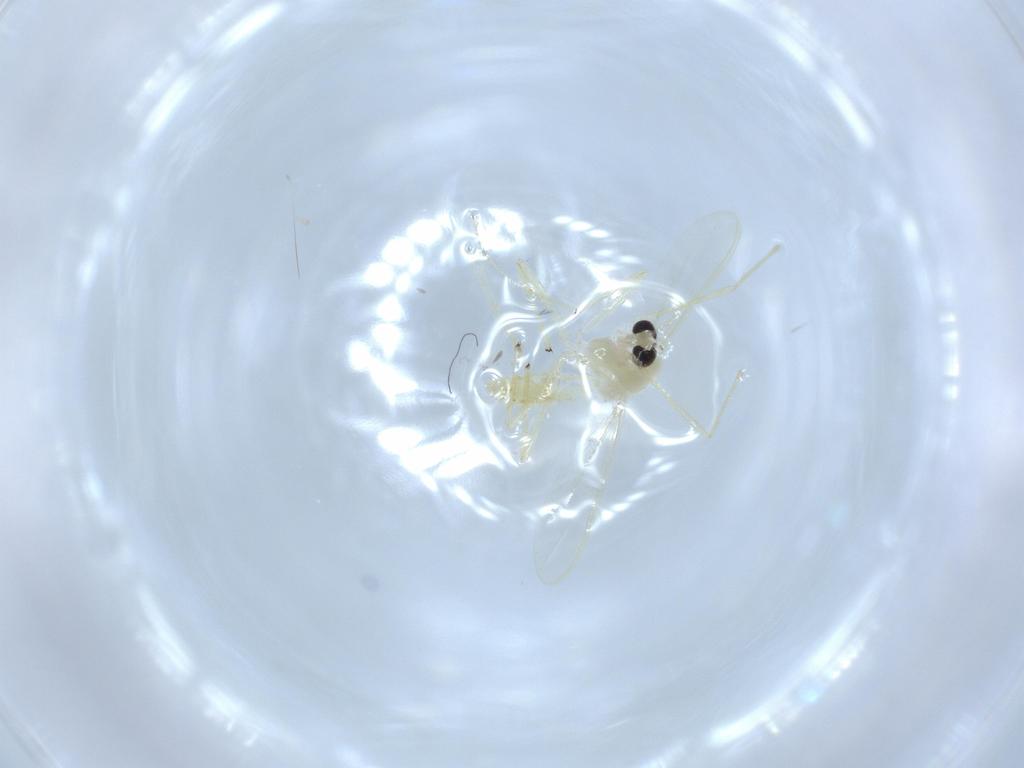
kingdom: Animalia
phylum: Arthropoda
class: Insecta
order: Diptera
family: Chironomidae
